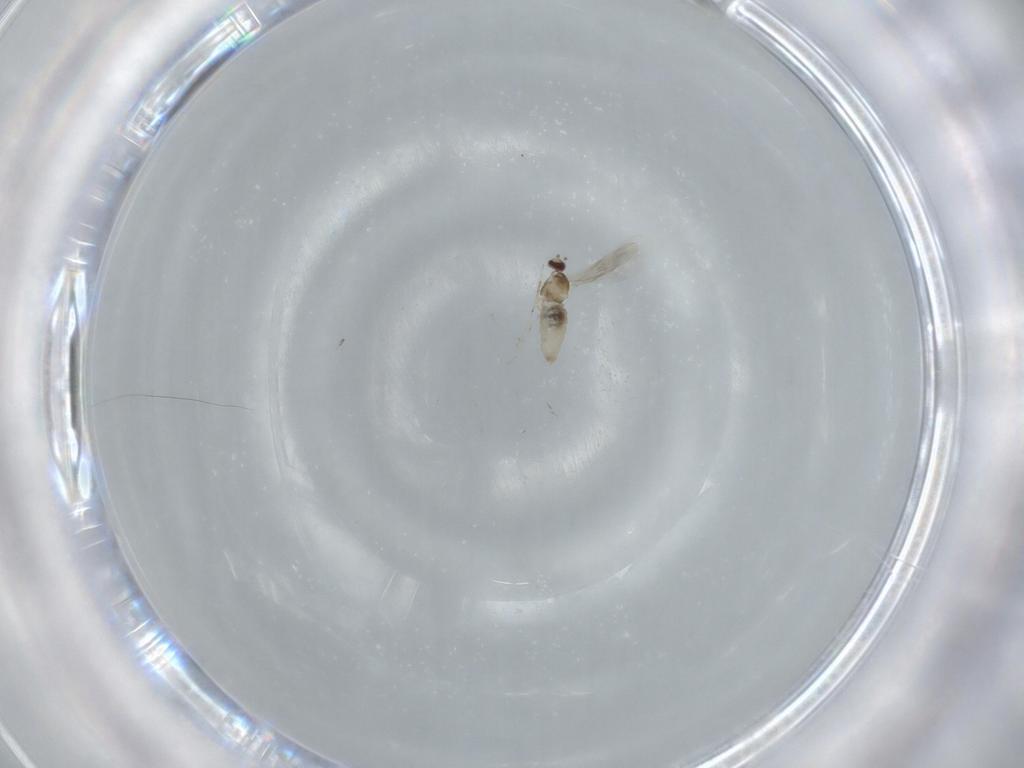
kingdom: Animalia
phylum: Arthropoda
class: Insecta
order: Diptera
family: Cecidomyiidae
